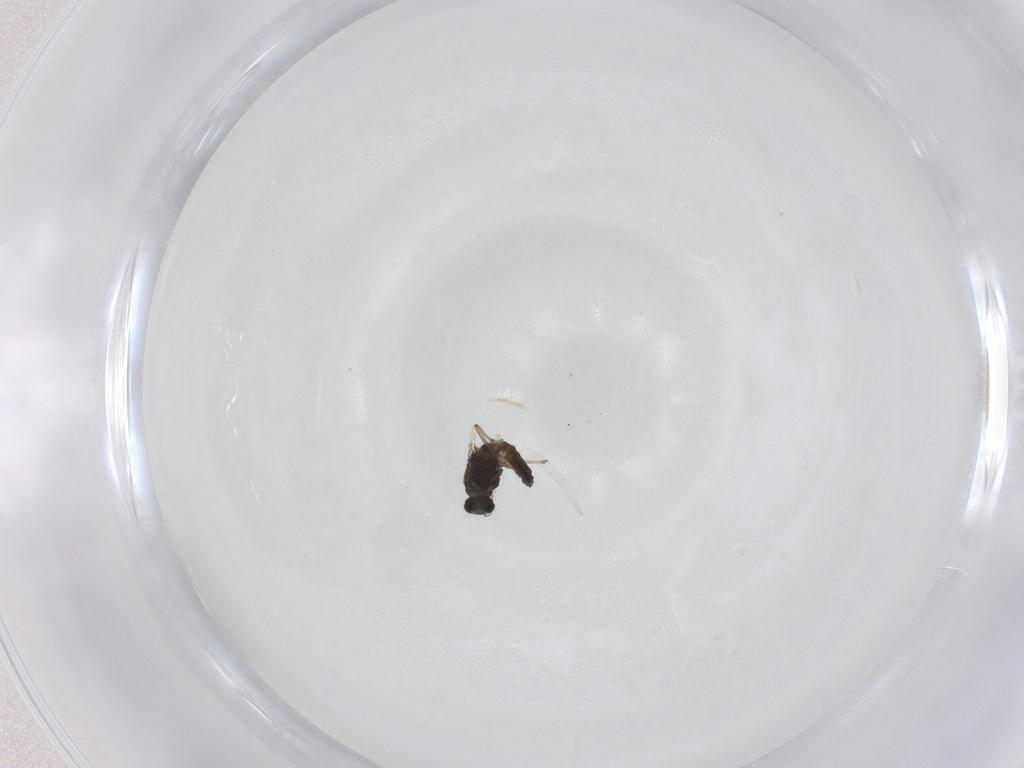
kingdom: Animalia
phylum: Arthropoda
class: Insecta
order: Diptera
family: Chironomidae
